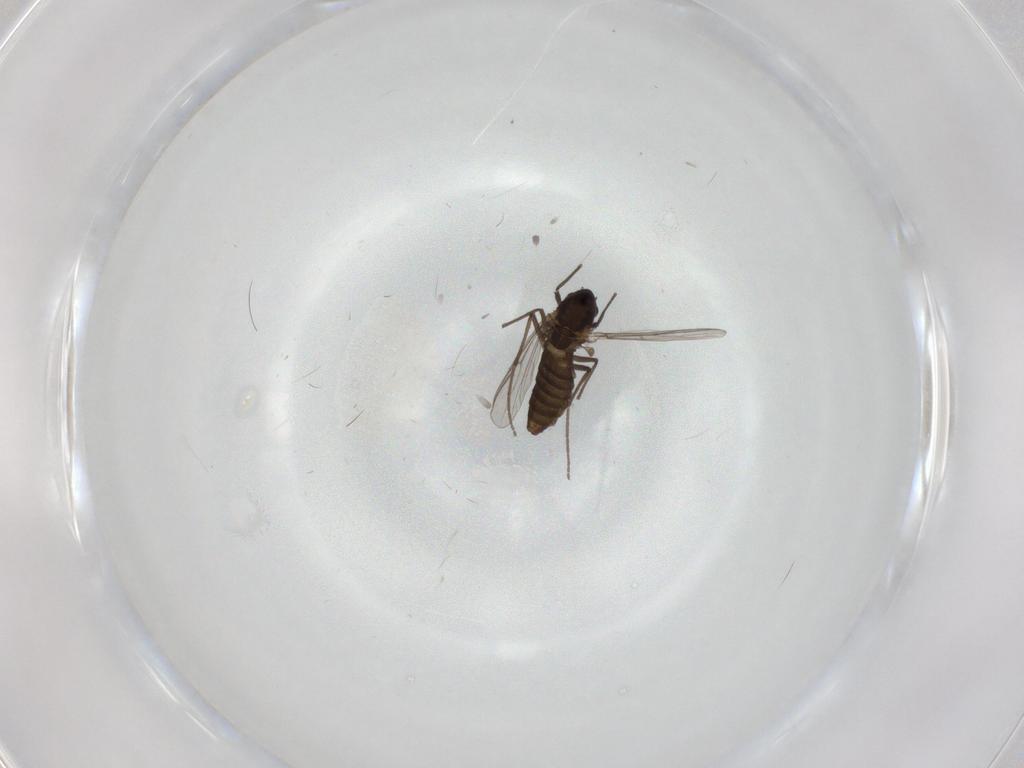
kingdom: Animalia
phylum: Arthropoda
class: Insecta
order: Diptera
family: Chironomidae
